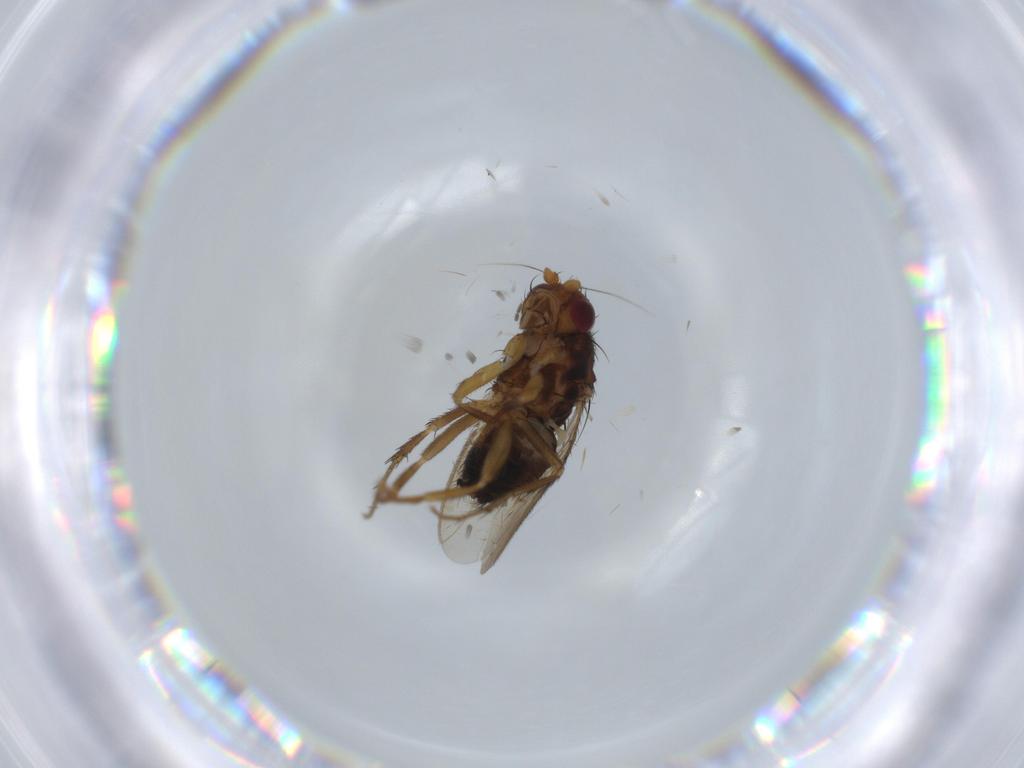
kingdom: Animalia
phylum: Arthropoda
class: Insecta
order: Diptera
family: Sphaeroceridae
